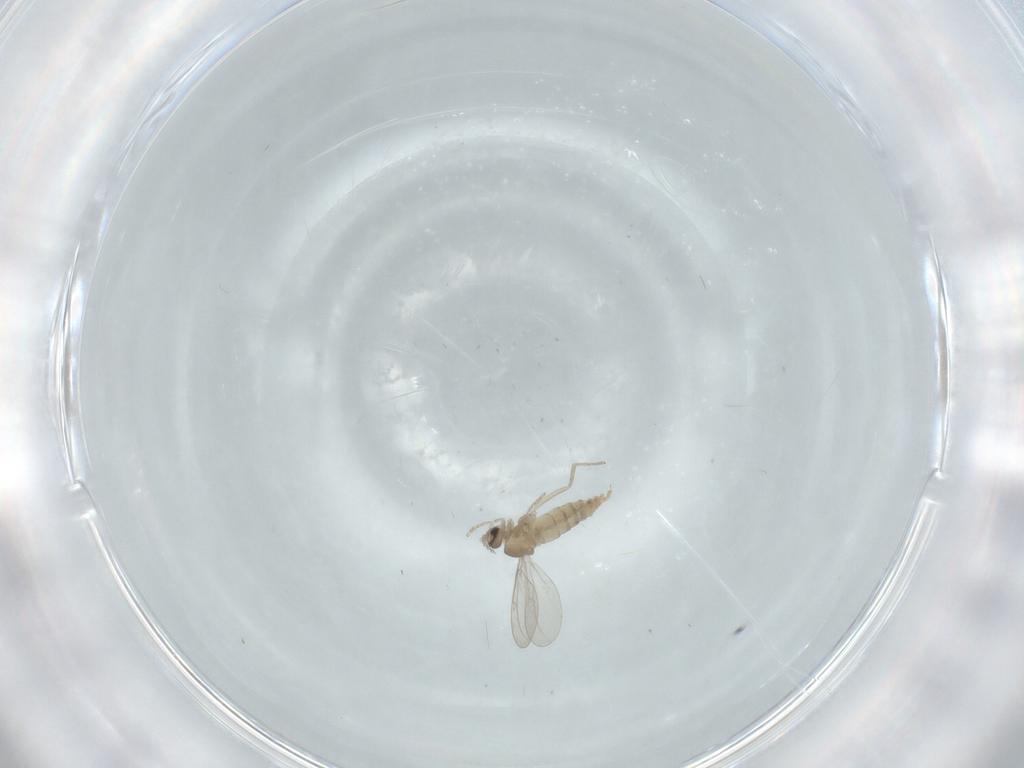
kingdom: Animalia
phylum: Arthropoda
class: Insecta
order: Diptera
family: Cecidomyiidae
